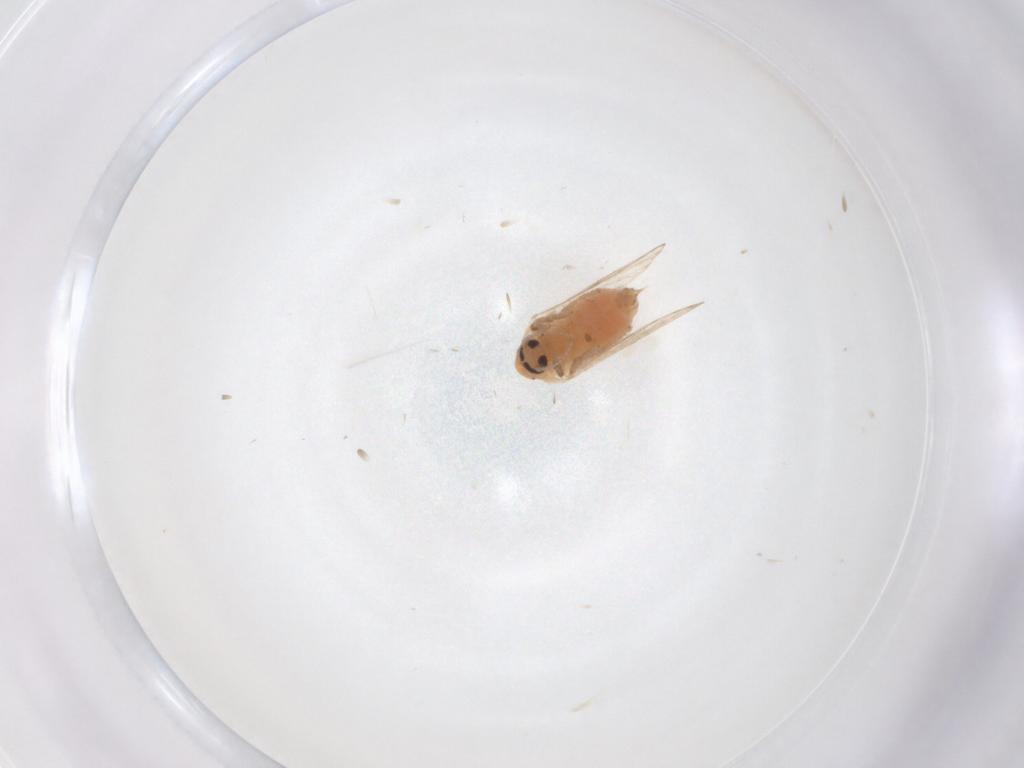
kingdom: Animalia
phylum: Arthropoda
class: Insecta
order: Diptera
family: Psychodidae
